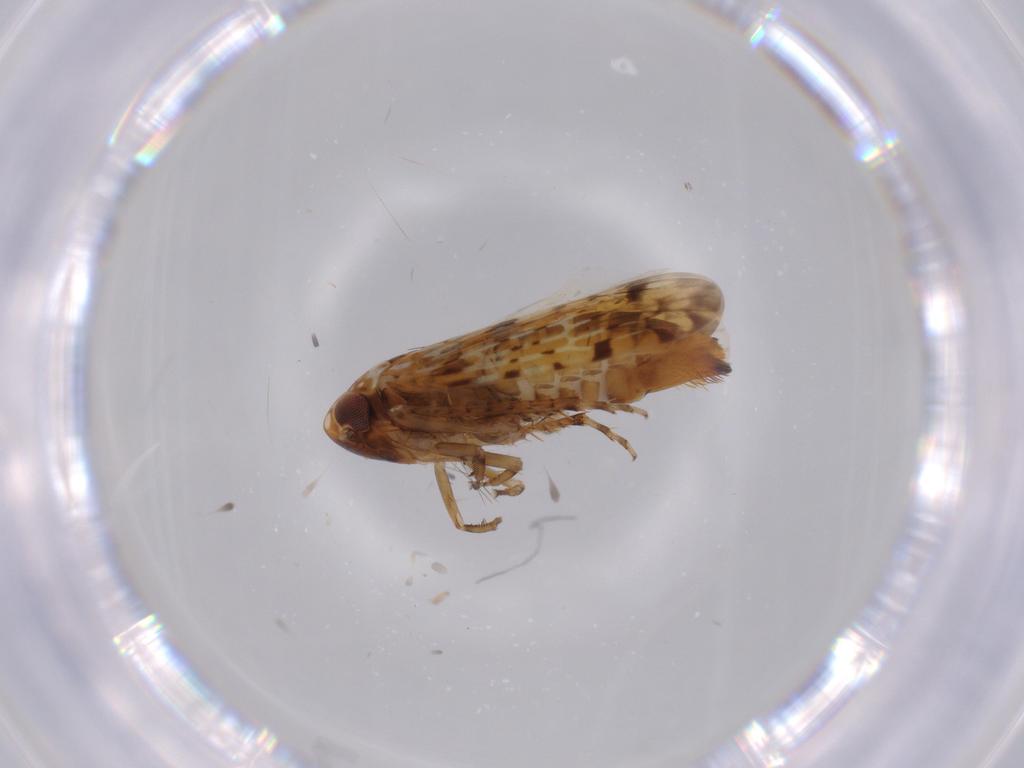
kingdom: Animalia
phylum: Arthropoda
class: Insecta
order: Hemiptera
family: Cicadellidae
